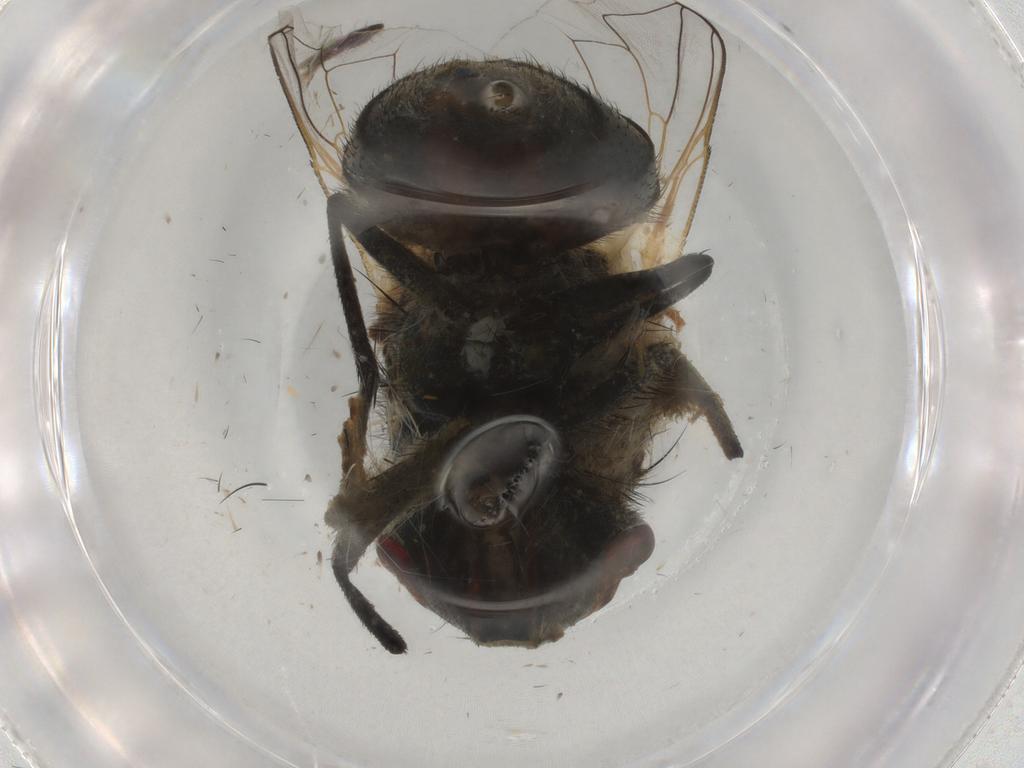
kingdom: Animalia
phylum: Arthropoda
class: Insecta
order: Diptera
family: Muscidae
